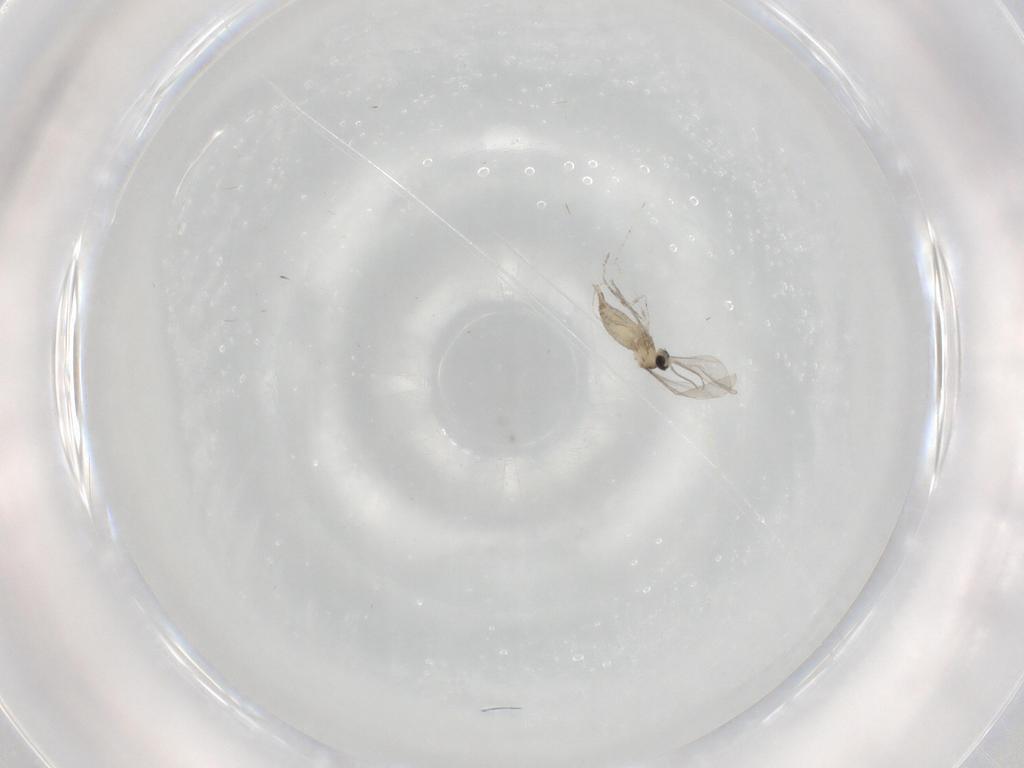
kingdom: Animalia
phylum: Arthropoda
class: Insecta
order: Diptera
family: Cecidomyiidae
